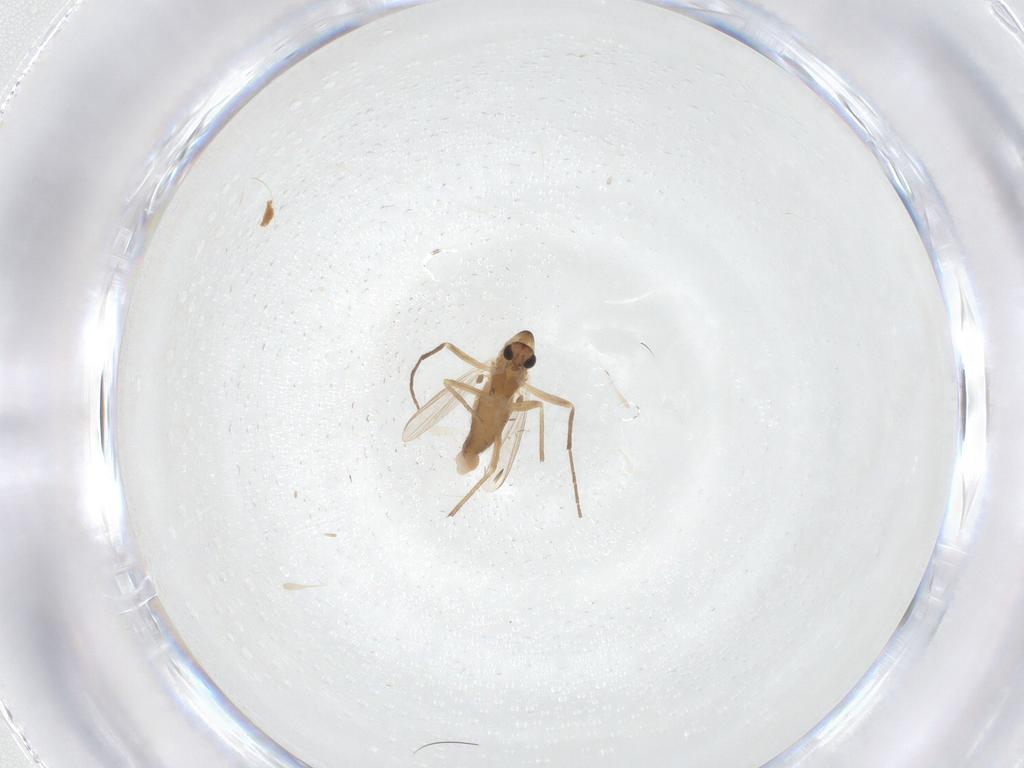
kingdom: Animalia
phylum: Arthropoda
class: Insecta
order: Diptera
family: Chironomidae
